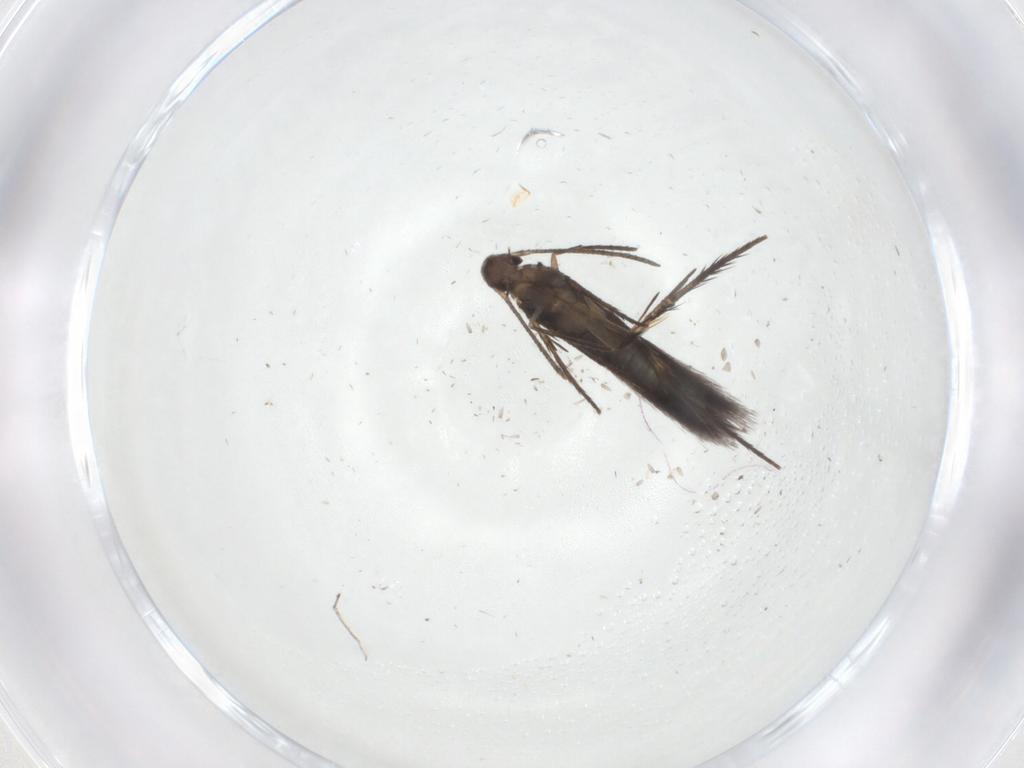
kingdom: Animalia
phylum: Arthropoda
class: Insecta
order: Lepidoptera
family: Gelechiidae
